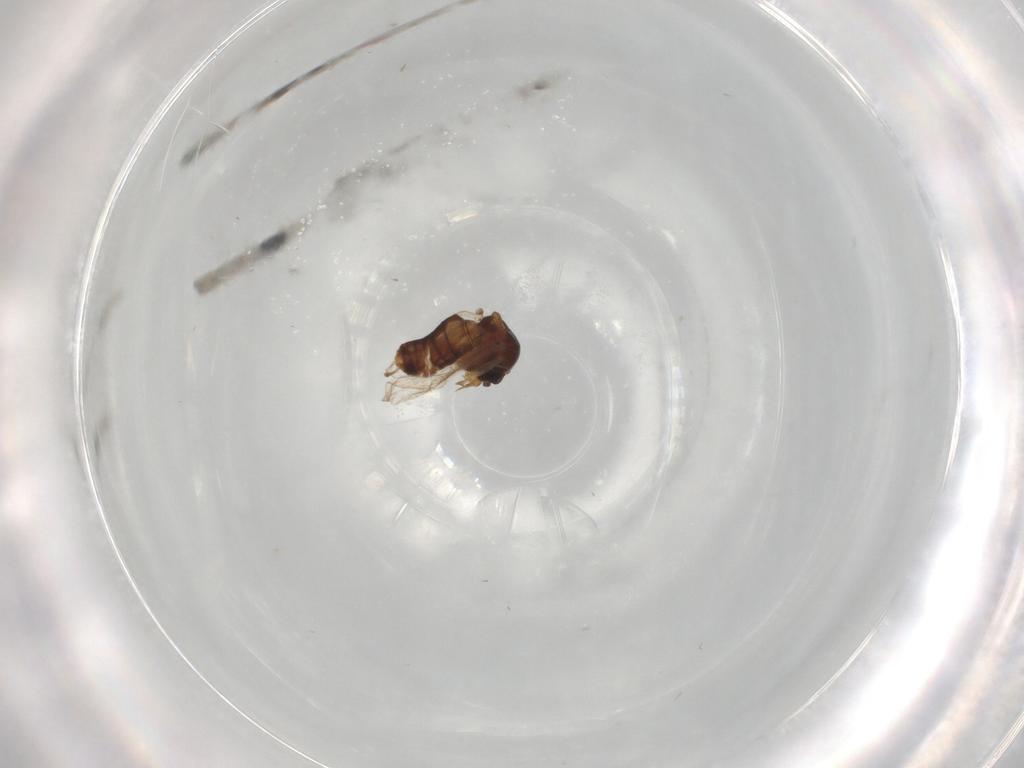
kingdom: Animalia
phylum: Arthropoda
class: Insecta
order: Diptera
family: Ceratopogonidae
